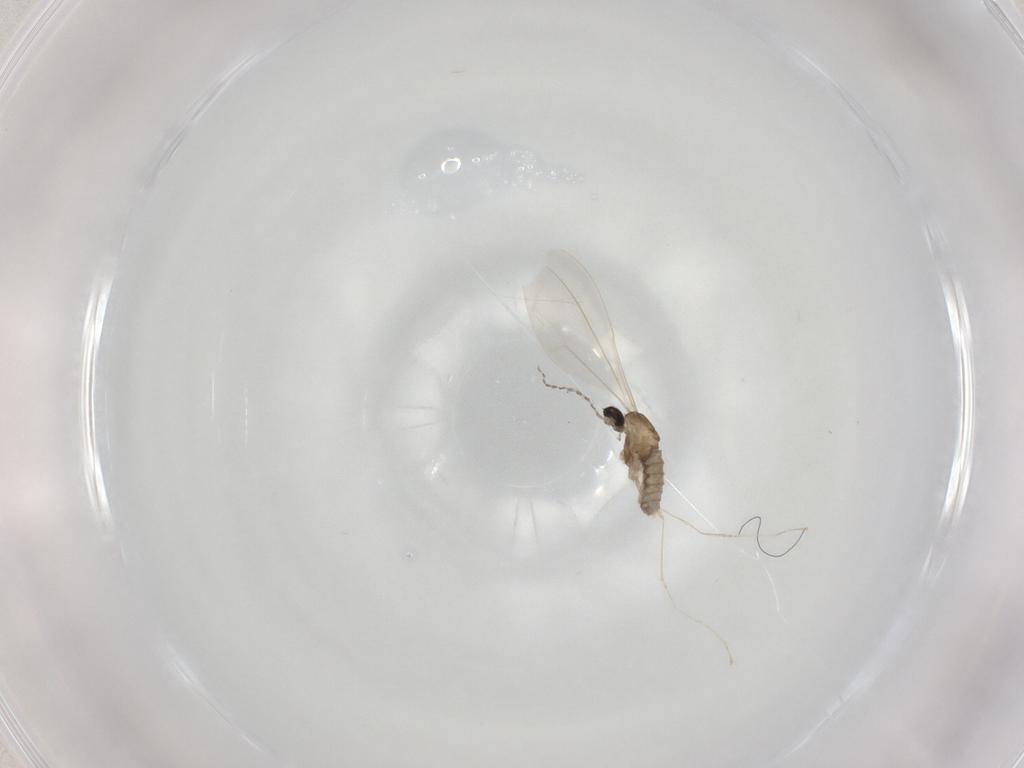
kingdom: Animalia
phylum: Arthropoda
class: Insecta
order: Diptera
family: Cecidomyiidae
